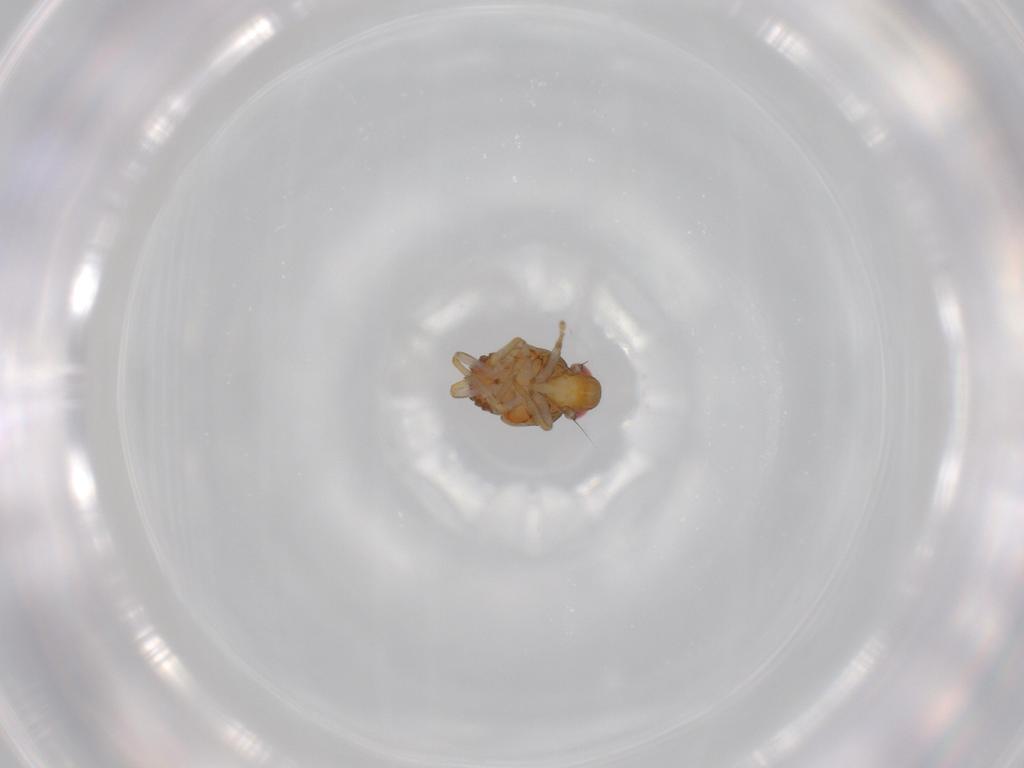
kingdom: Animalia
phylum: Arthropoda
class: Insecta
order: Hemiptera
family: Issidae
